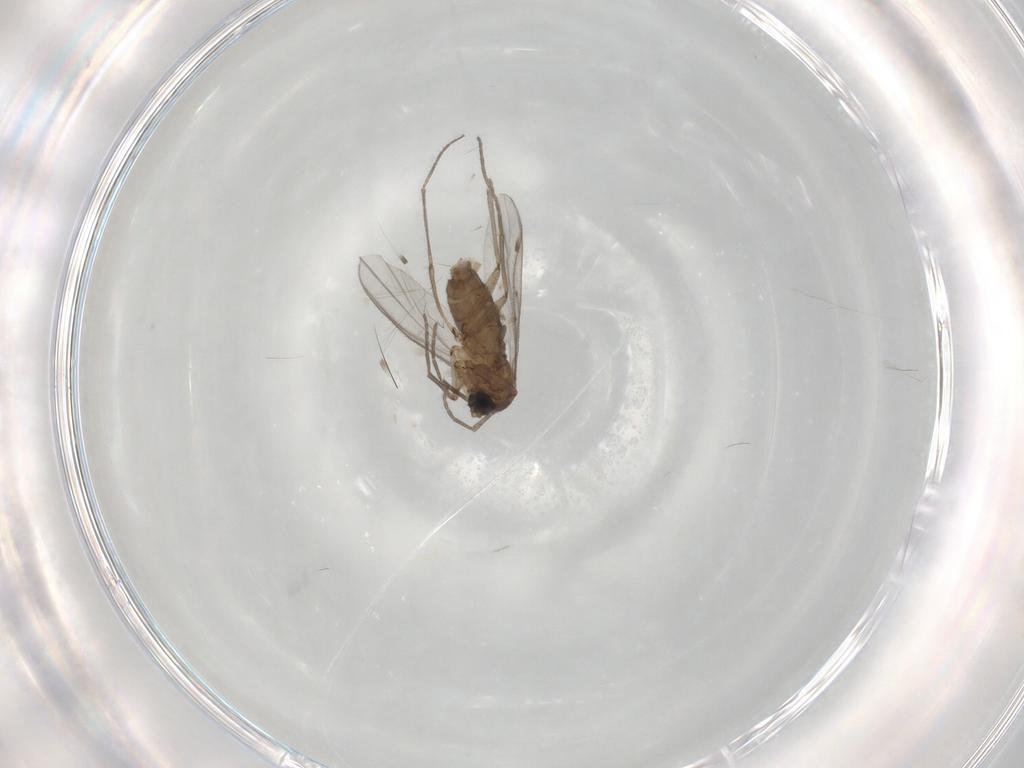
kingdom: Animalia
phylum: Arthropoda
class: Insecta
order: Diptera
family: Sciaridae
